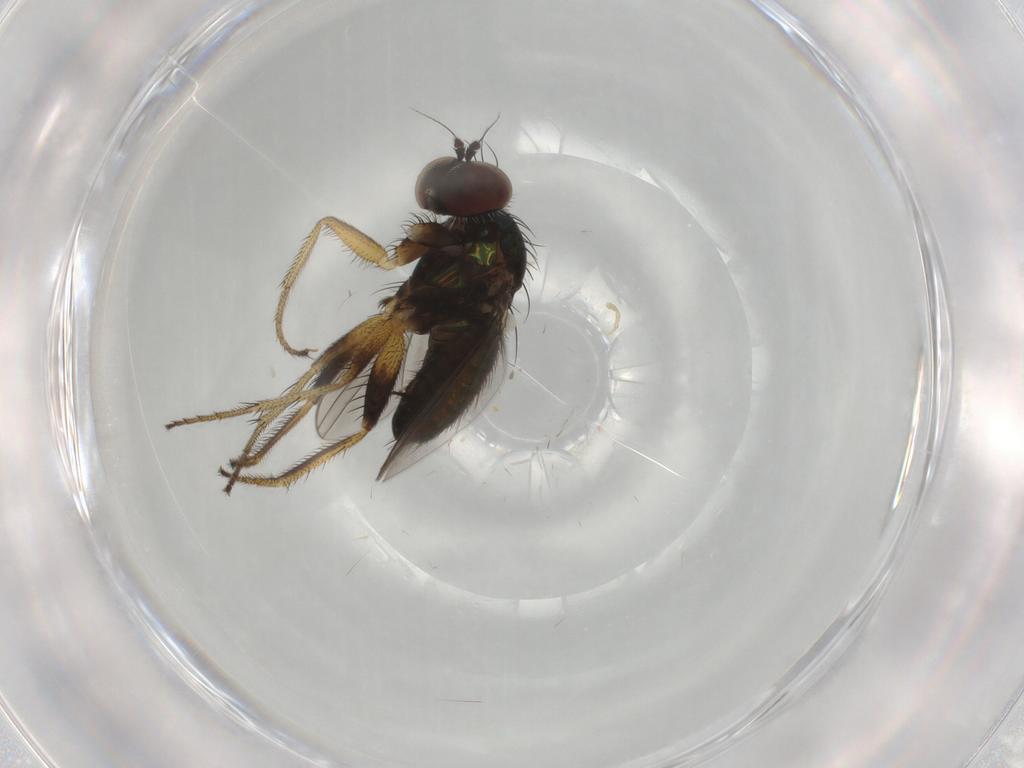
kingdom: Animalia
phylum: Arthropoda
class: Insecta
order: Diptera
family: Dolichopodidae
